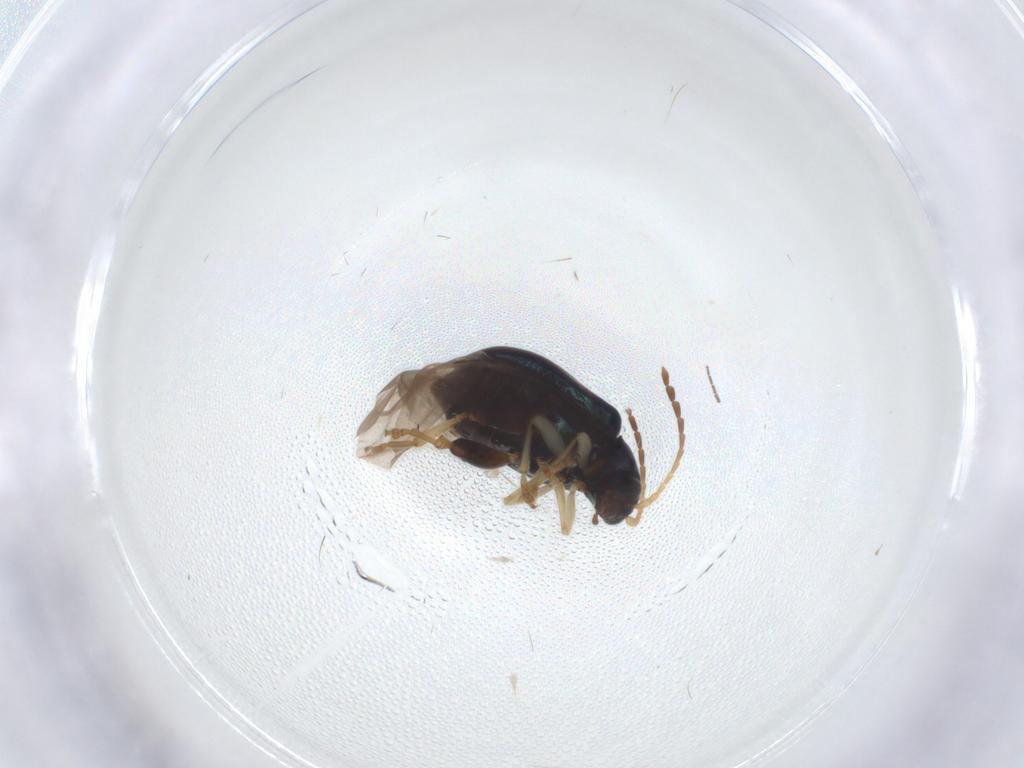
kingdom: Animalia
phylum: Arthropoda
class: Insecta
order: Coleoptera
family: Chrysomelidae
